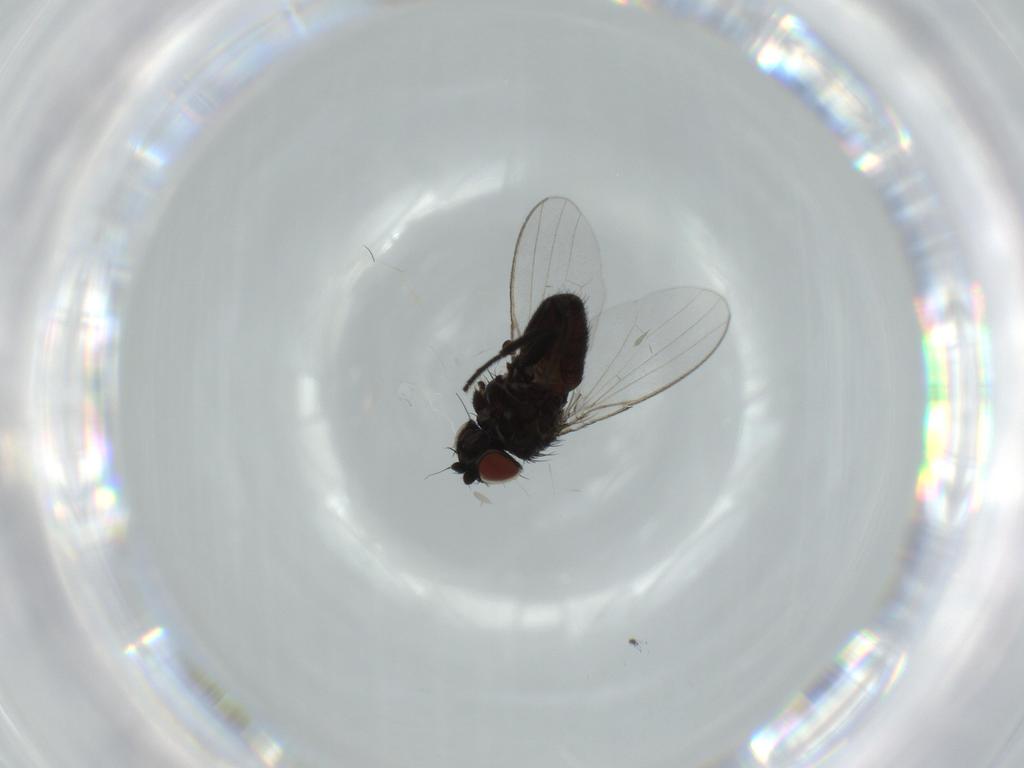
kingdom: Animalia
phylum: Arthropoda
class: Insecta
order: Diptera
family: Milichiidae
